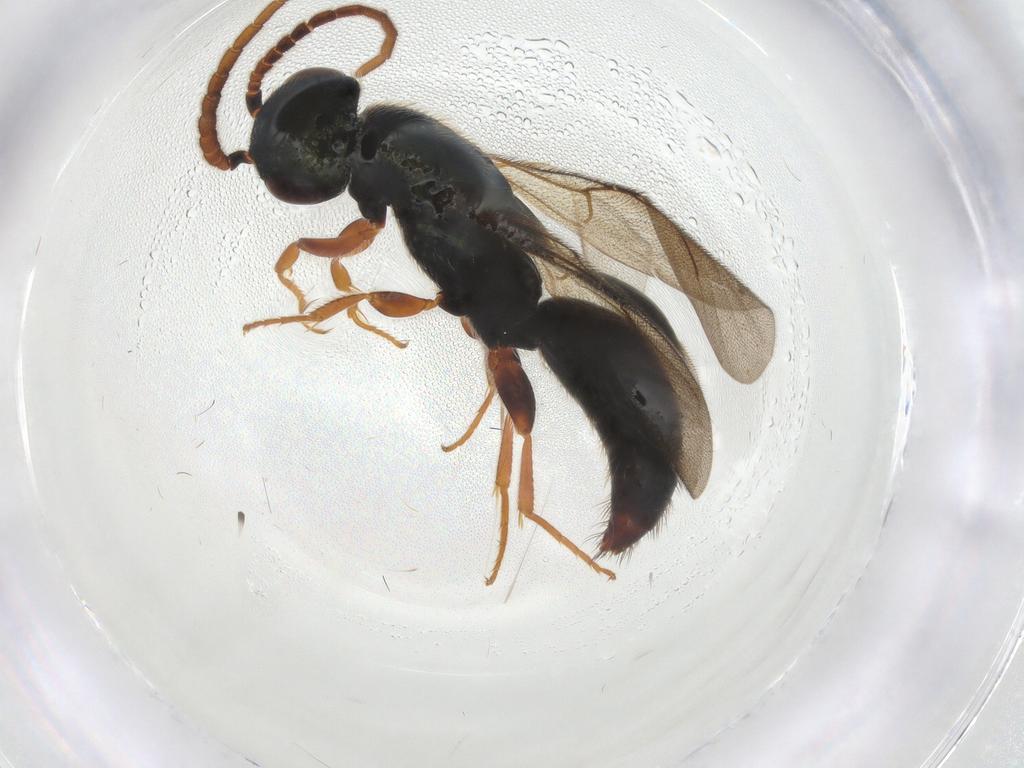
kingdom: Animalia
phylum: Arthropoda
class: Insecta
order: Hymenoptera
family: Bethylidae
